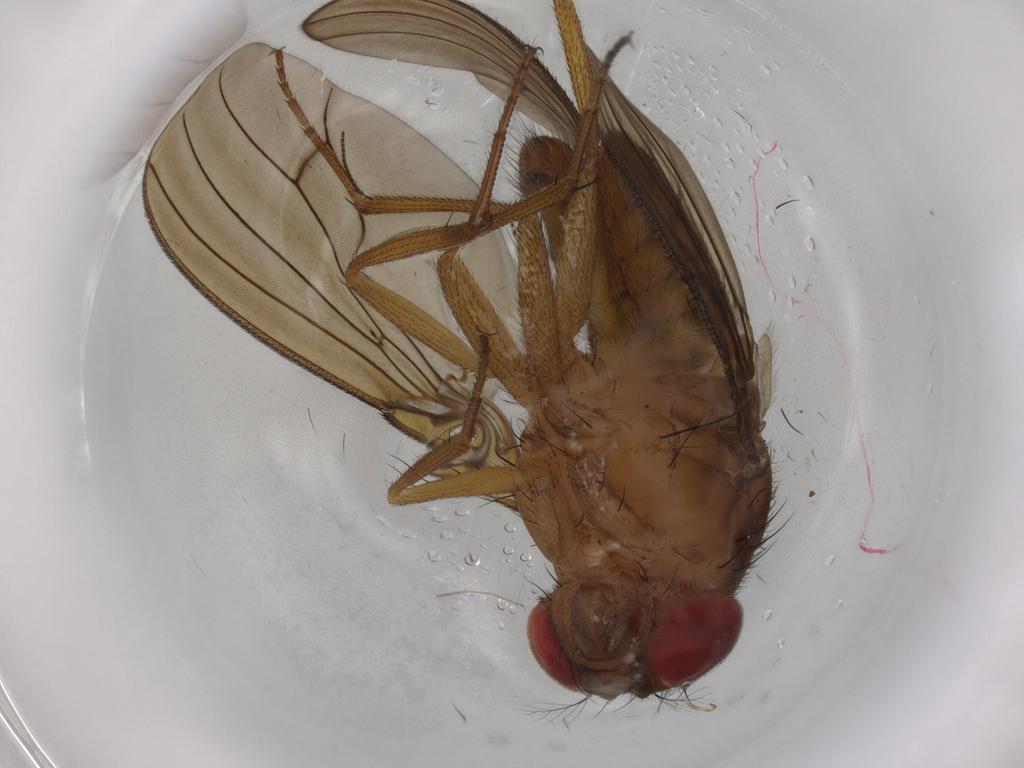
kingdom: Animalia
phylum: Arthropoda
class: Insecta
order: Diptera
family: Drosophilidae
